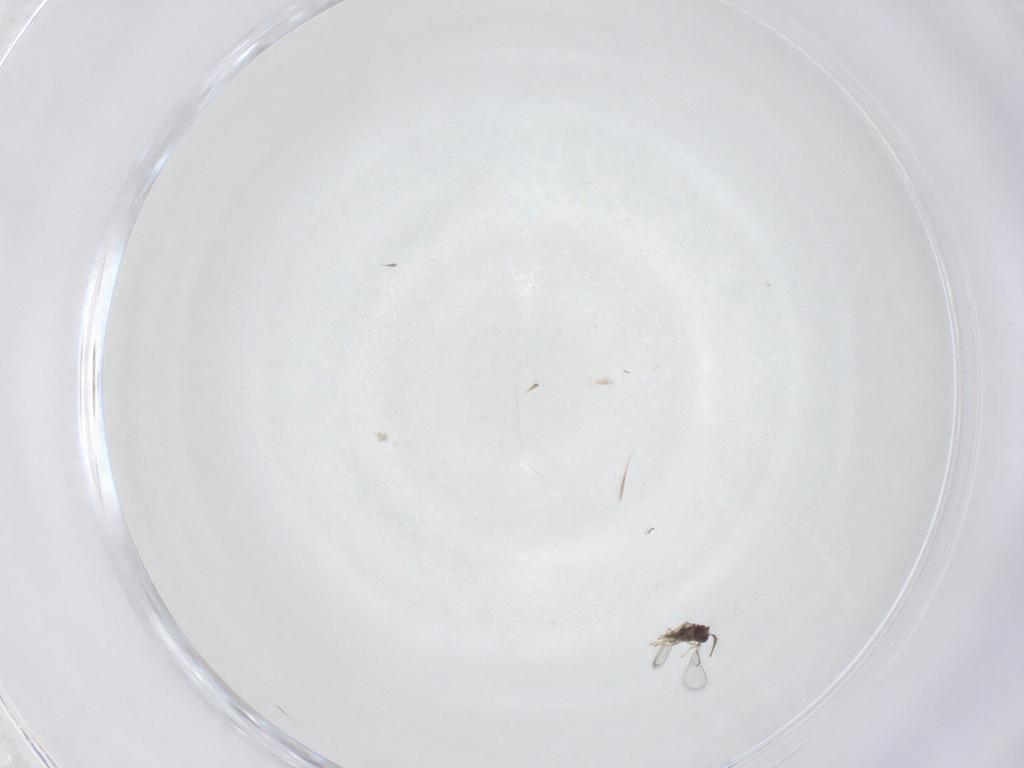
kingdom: Animalia
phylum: Arthropoda
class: Insecta
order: Hymenoptera
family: Trichogrammatidae
